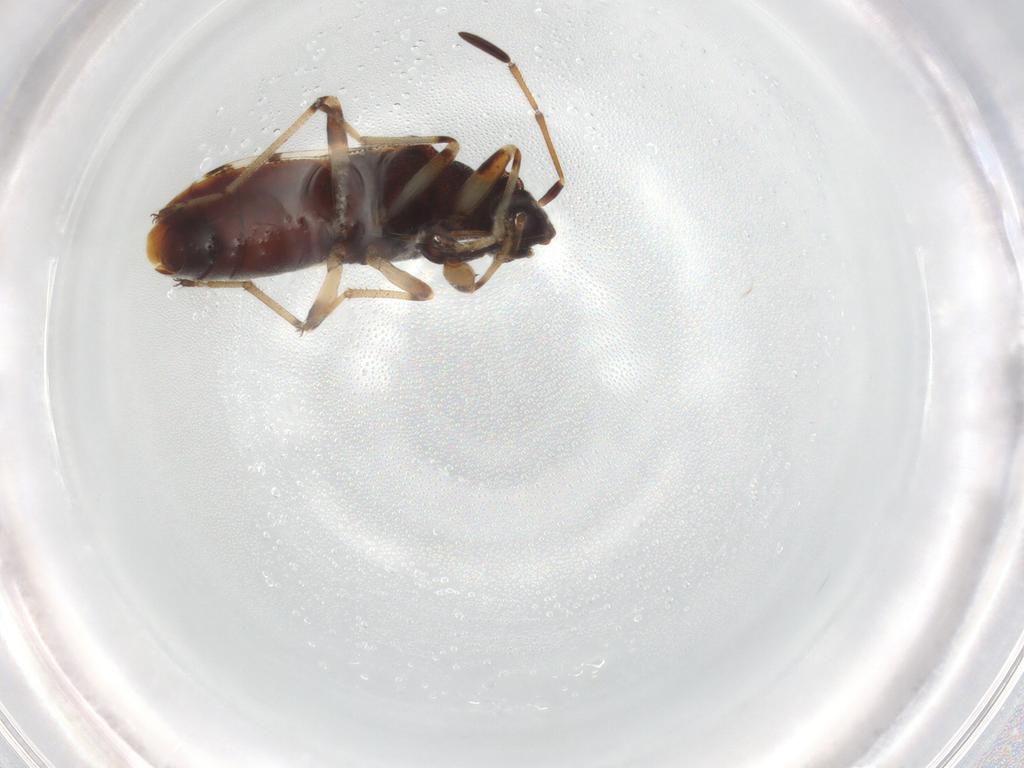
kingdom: Animalia
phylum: Arthropoda
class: Insecta
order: Hemiptera
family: Rhyparochromidae
